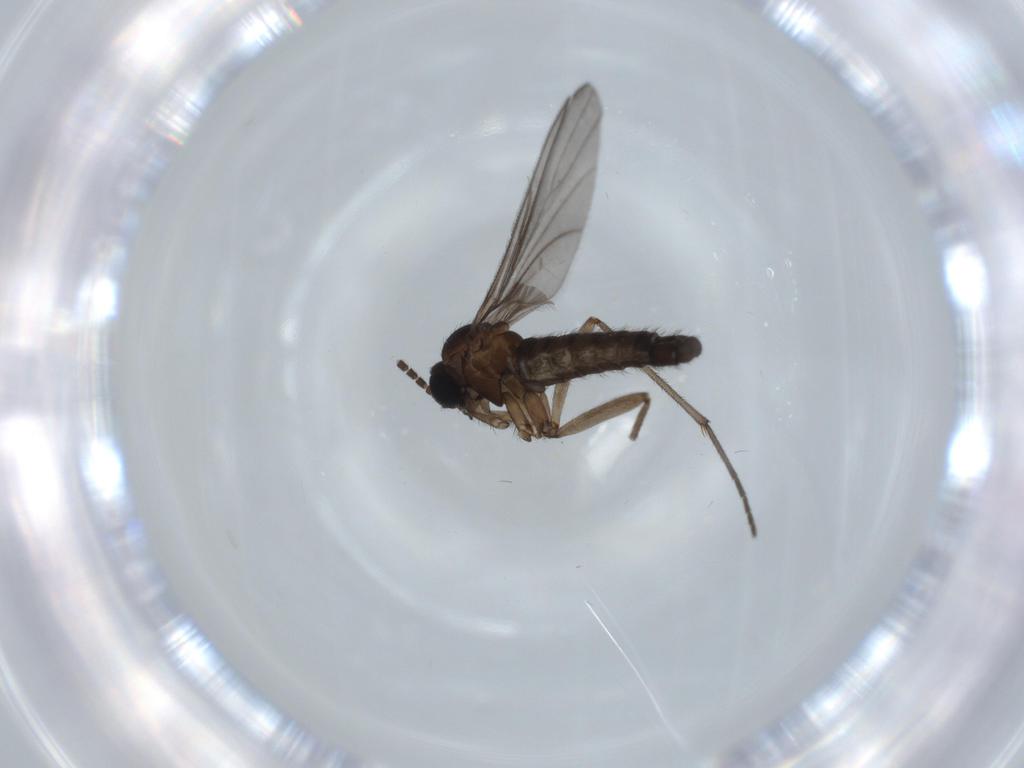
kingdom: Animalia
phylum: Arthropoda
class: Insecta
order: Diptera
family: Sciaridae
